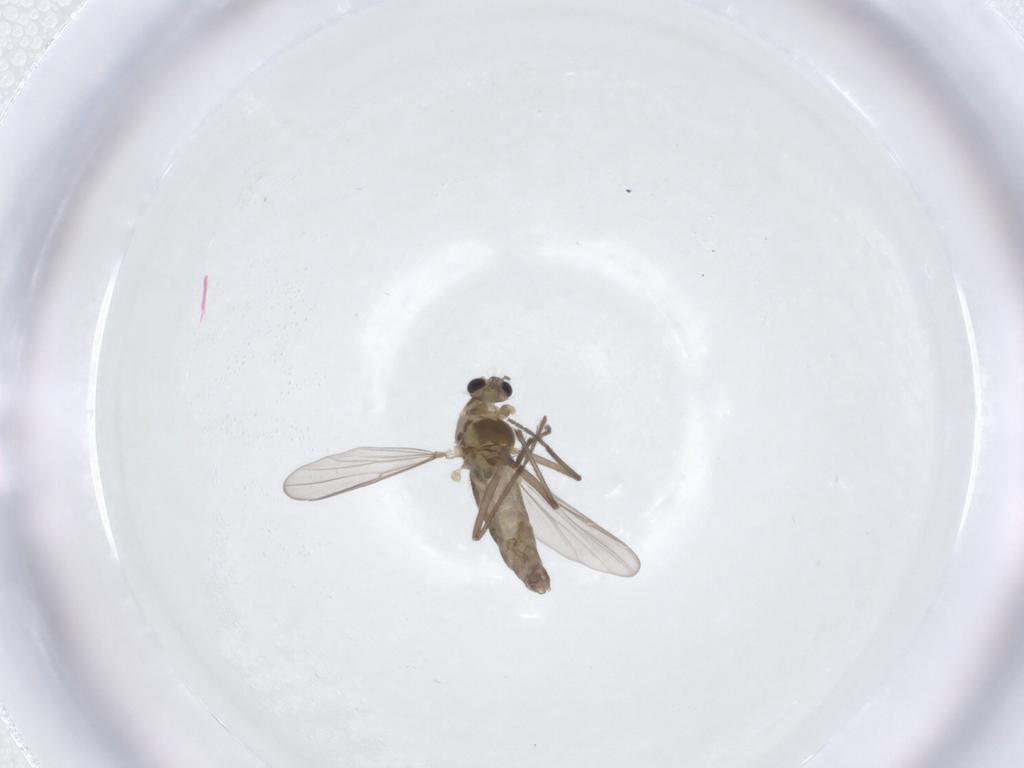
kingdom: Animalia
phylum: Arthropoda
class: Insecta
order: Diptera
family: Chironomidae
